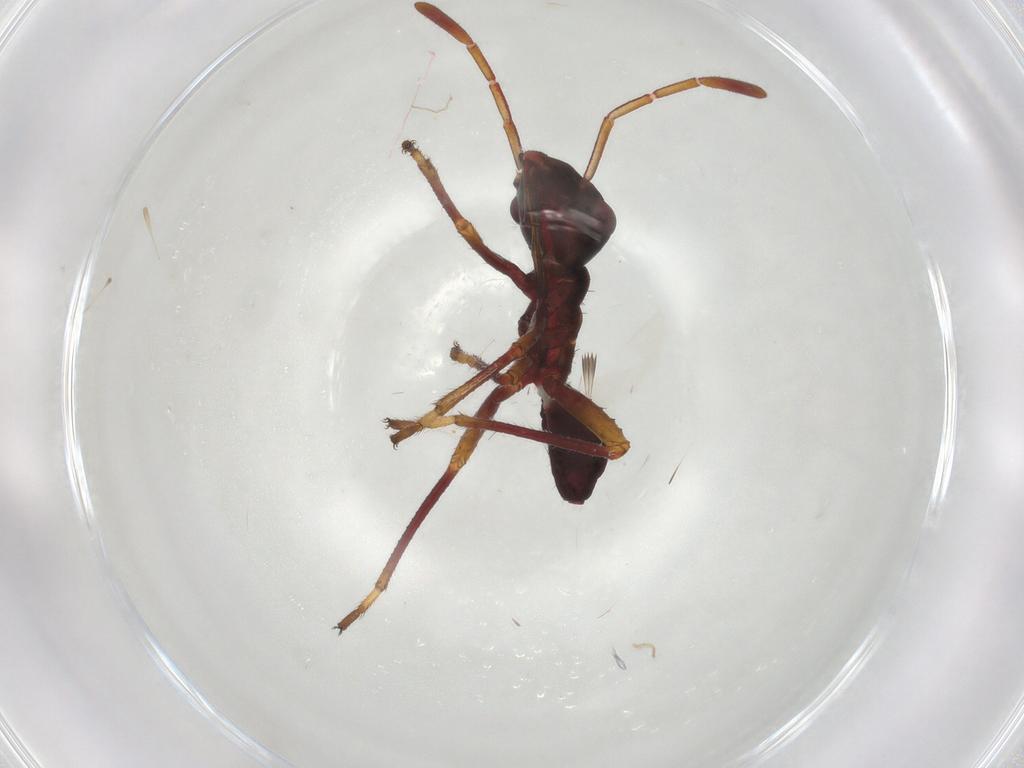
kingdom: Animalia
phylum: Arthropoda
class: Insecta
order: Hemiptera
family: Alydidae
